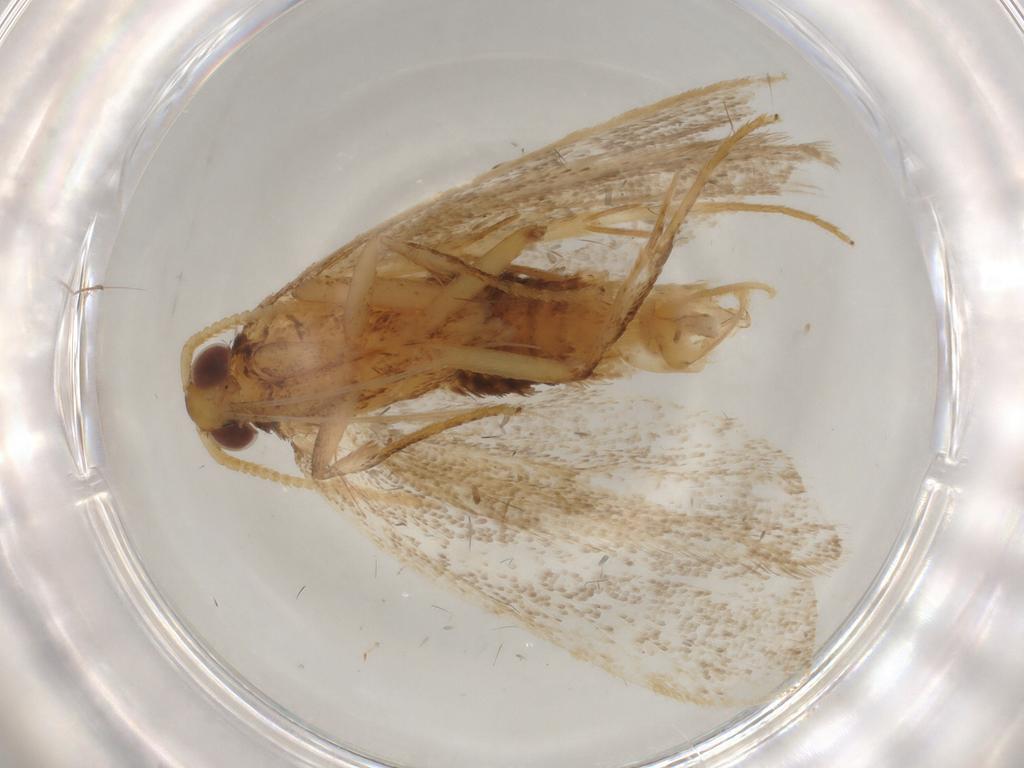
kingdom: Animalia
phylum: Arthropoda
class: Insecta
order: Lepidoptera
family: Lecithoceridae
